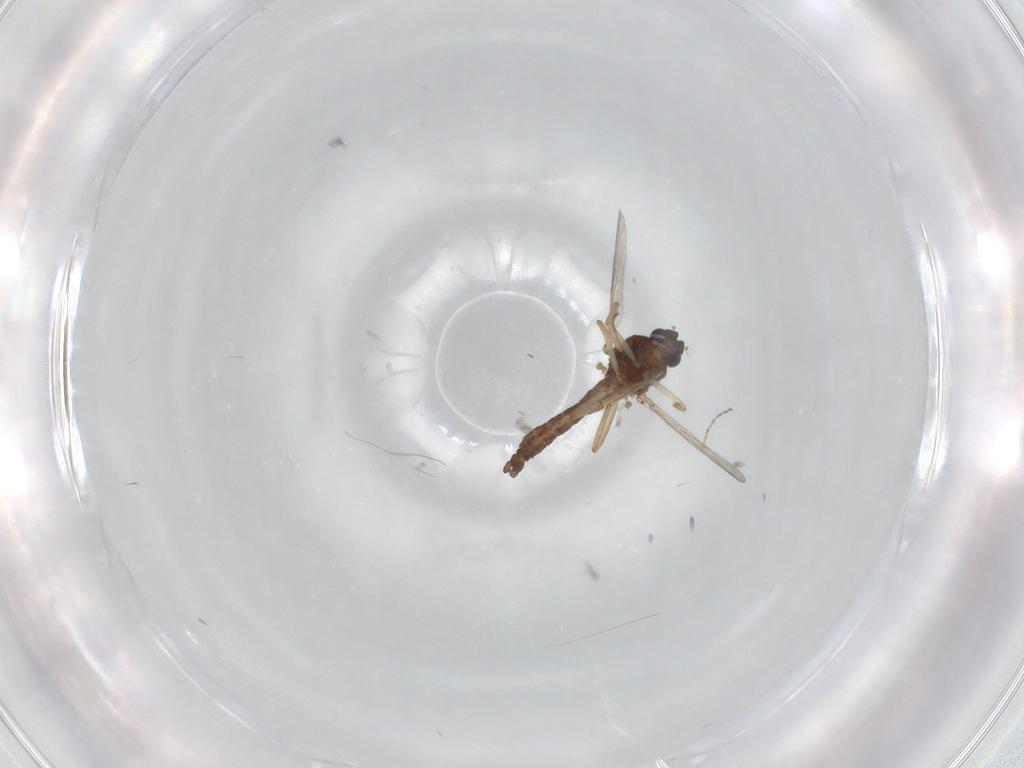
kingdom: Animalia
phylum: Arthropoda
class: Insecta
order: Diptera
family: Ceratopogonidae
